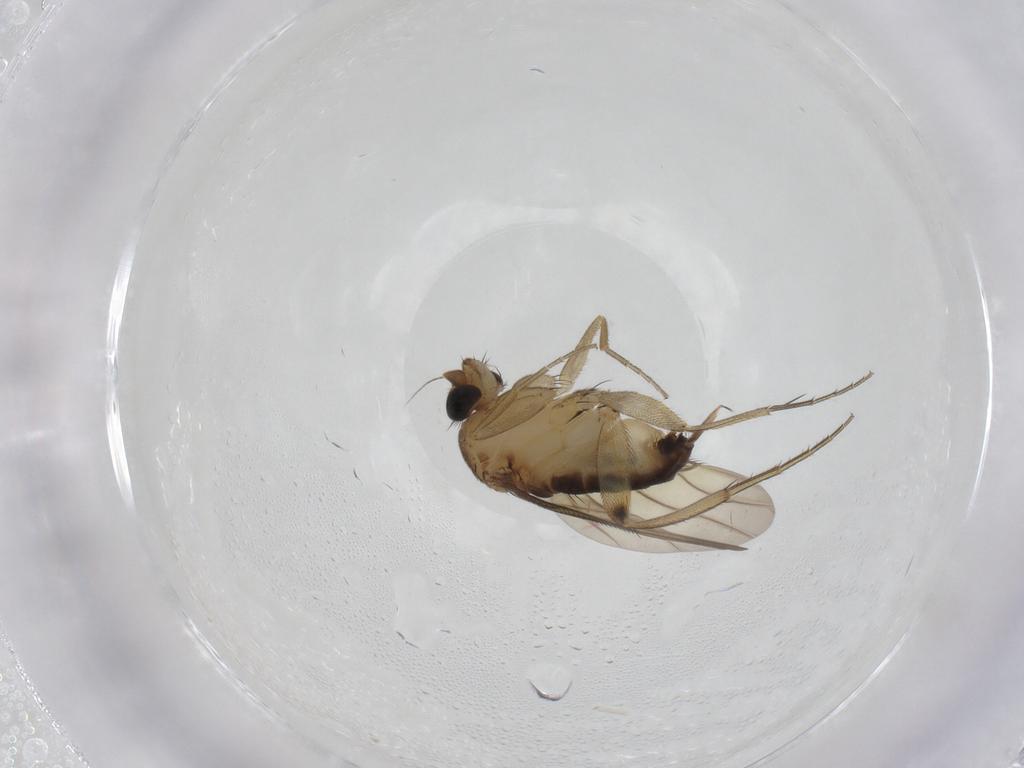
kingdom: Animalia
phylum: Arthropoda
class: Insecta
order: Diptera
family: Phoridae
